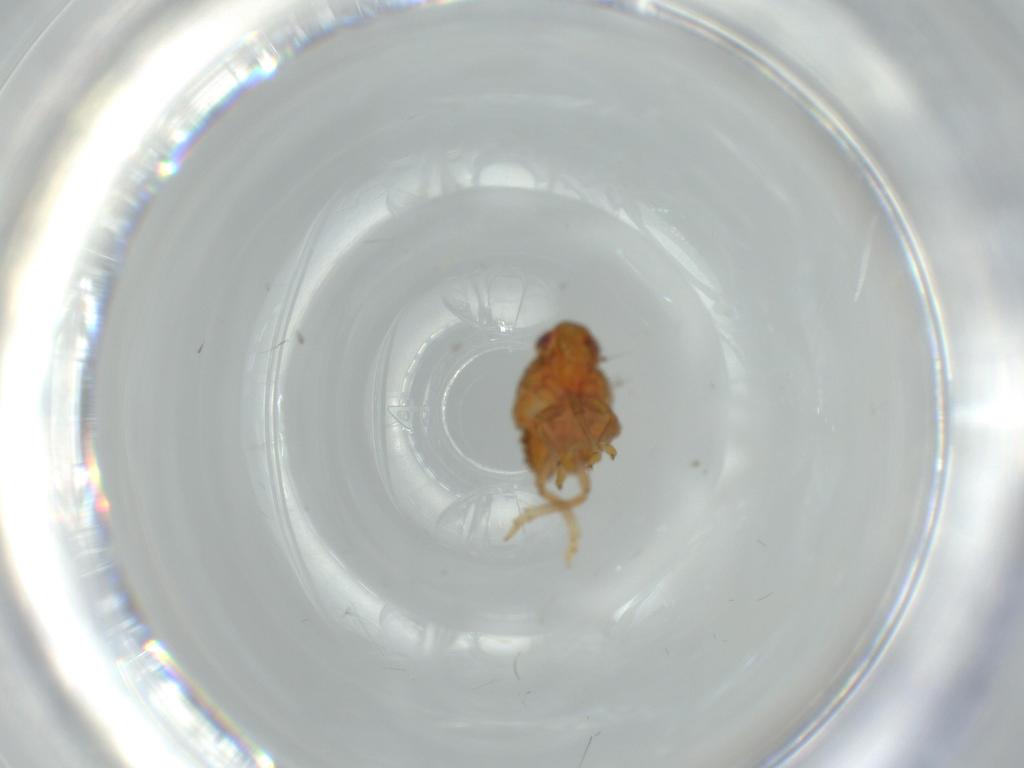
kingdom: Animalia
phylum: Arthropoda
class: Insecta
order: Hemiptera
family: Issidae
